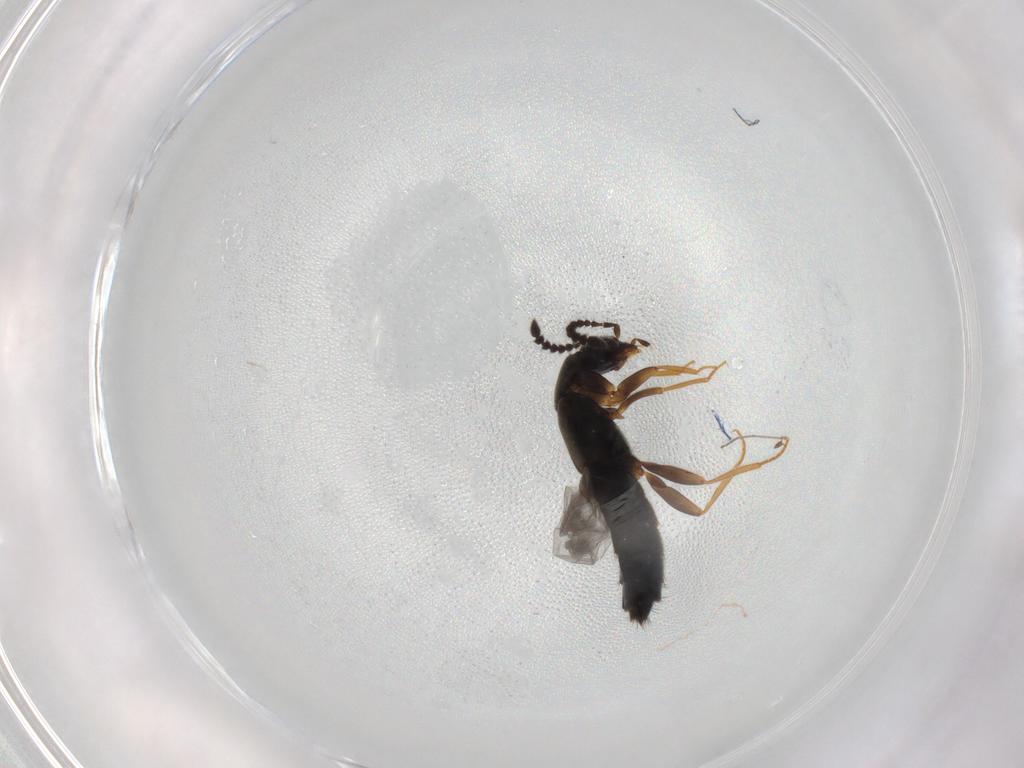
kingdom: Animalia
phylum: Arthropoda
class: Insecta
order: Coleoptera
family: Staphylinidae
